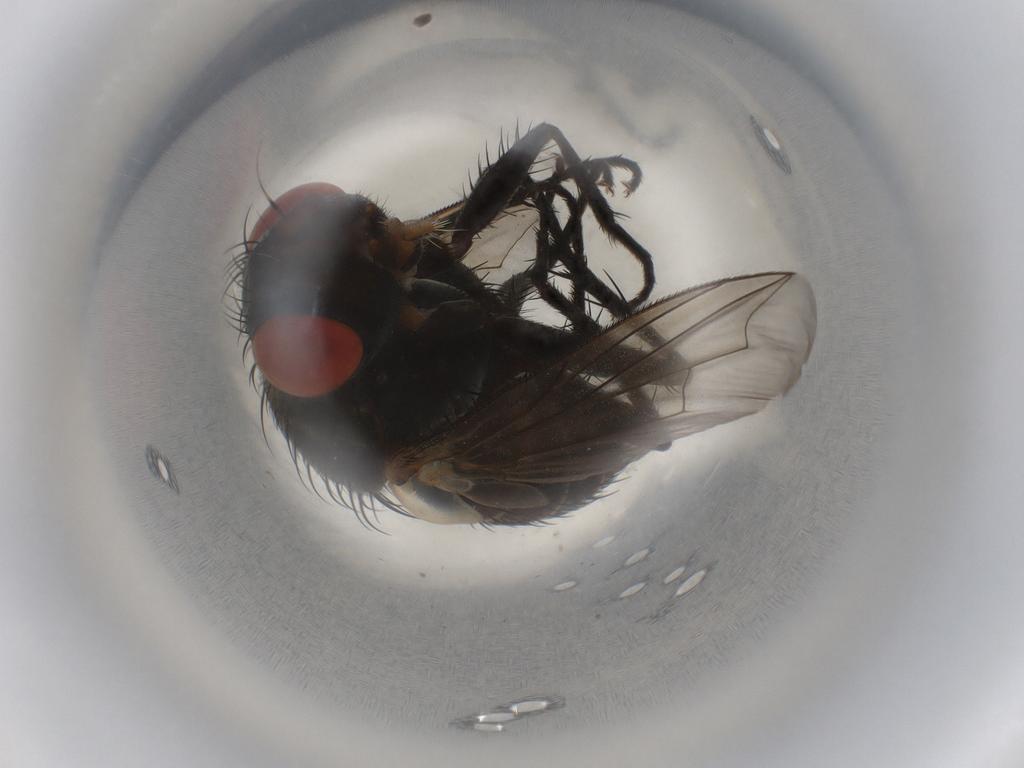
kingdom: Animalia
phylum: Arthropoda
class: Insecta
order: Diptera
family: Sarcophagidae
